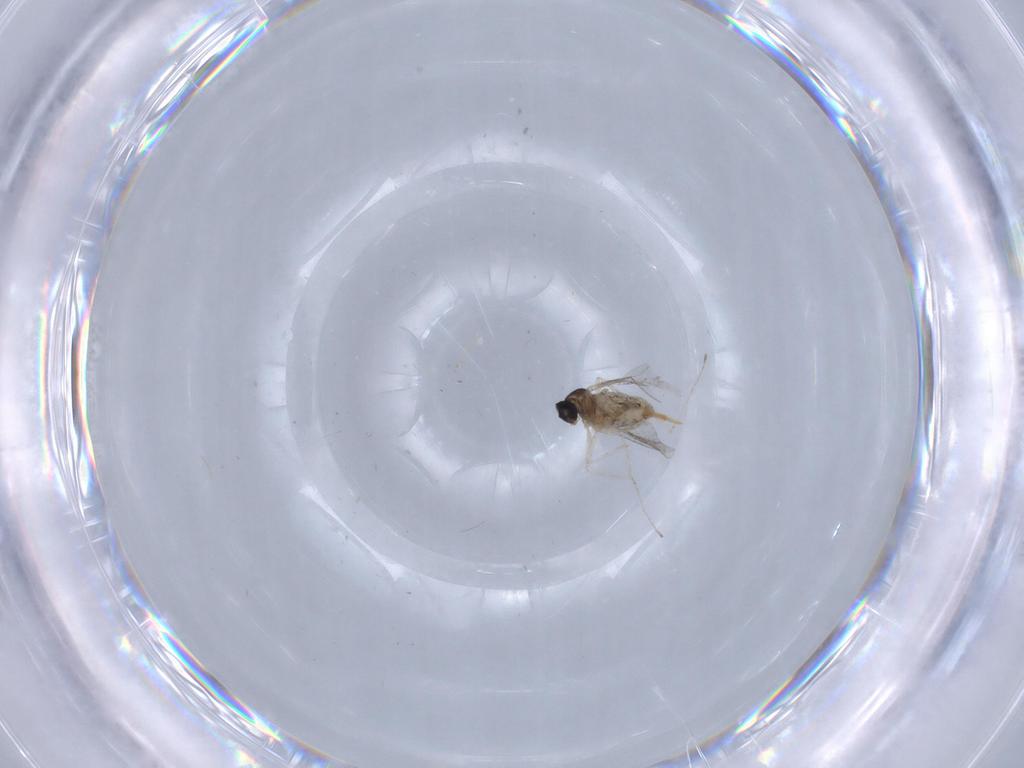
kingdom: Animalia
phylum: Arthropoda
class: Insecta
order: Diptera
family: Cecidomyiidae
